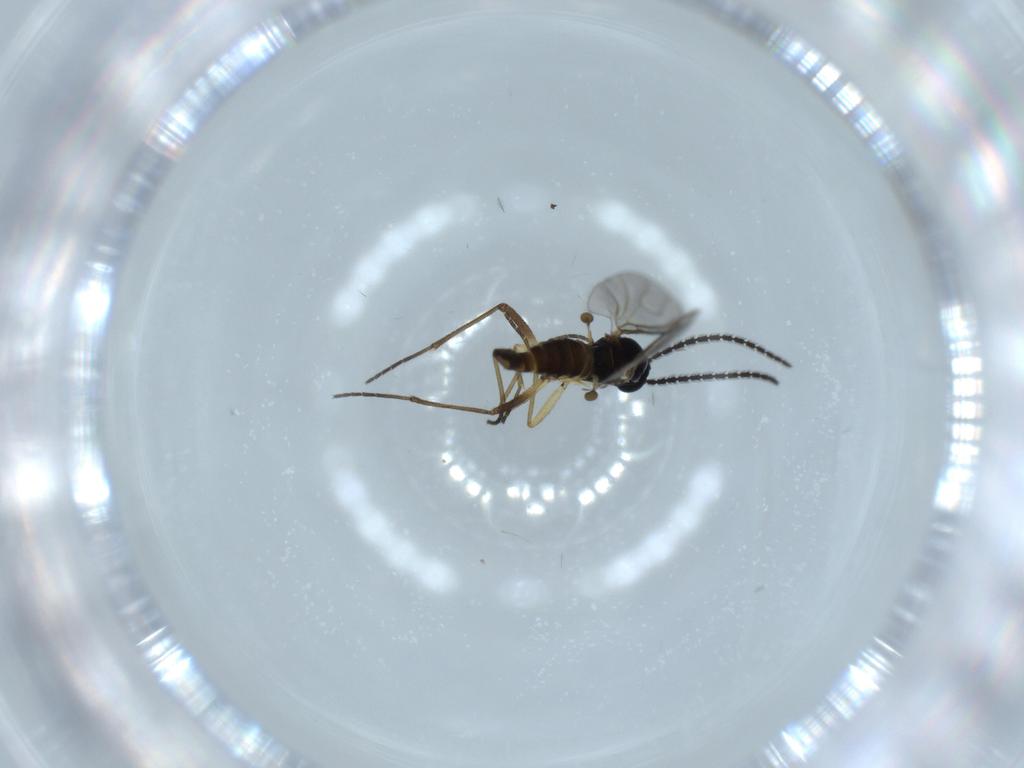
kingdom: Animalia
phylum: Arthropoda
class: Insecta
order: Diptera
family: Sciaridae
